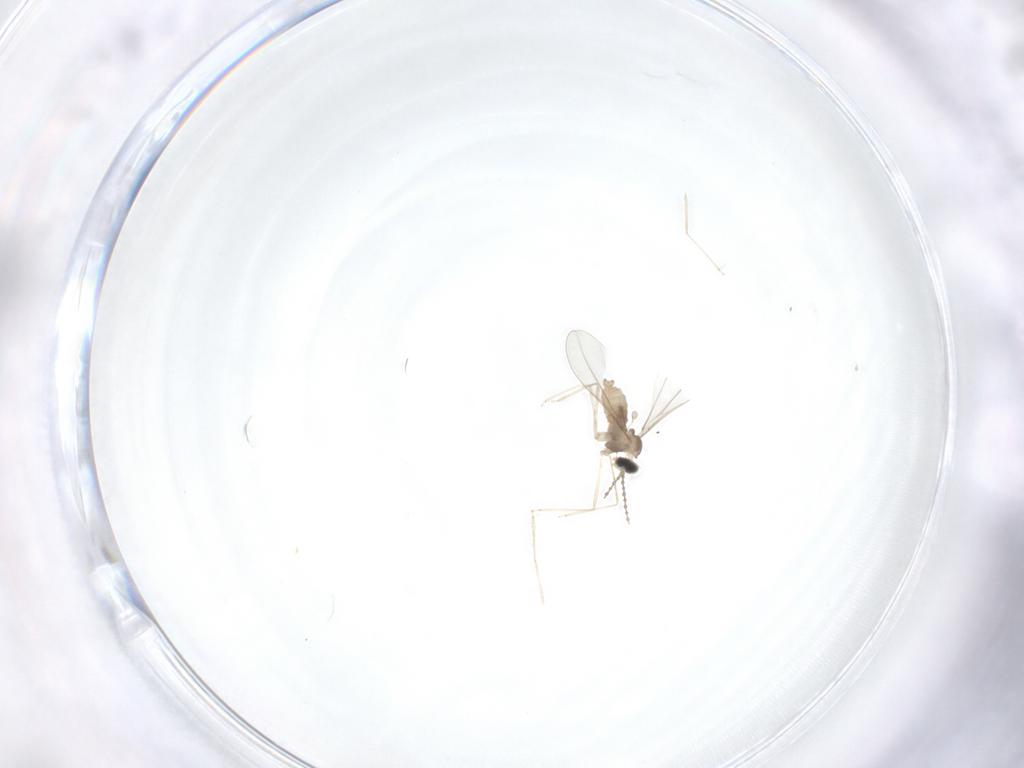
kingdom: Animalia
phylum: Arthropoda
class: Insecta
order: Diptera
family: Cecidomyiidae
